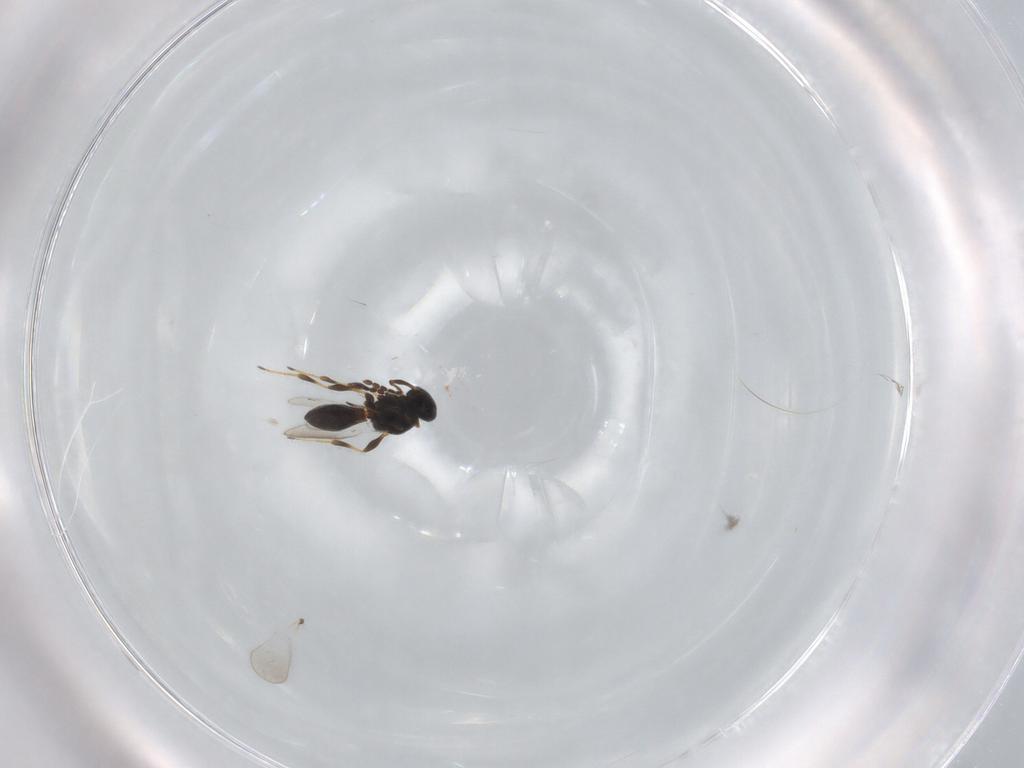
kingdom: Animalia
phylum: Arthropoda
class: Insecta
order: Hymenoptera
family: Platygastridae
